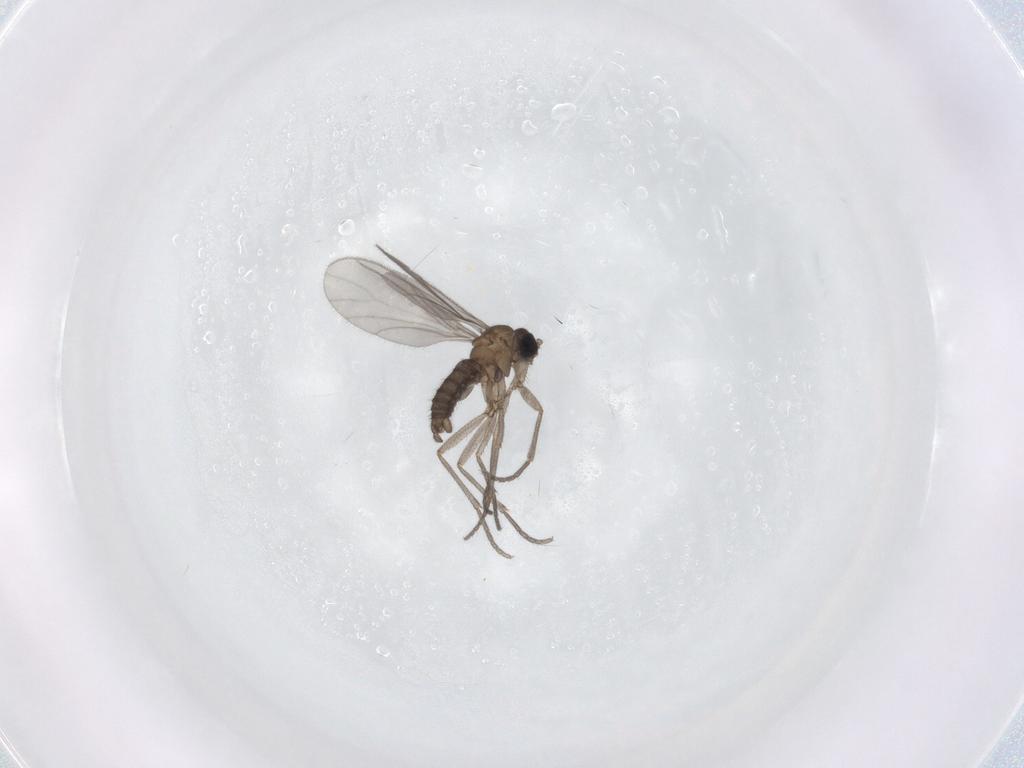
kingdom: Animalia
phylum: Arthropoda
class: Insecta
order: Diptera
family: Sciaridae
